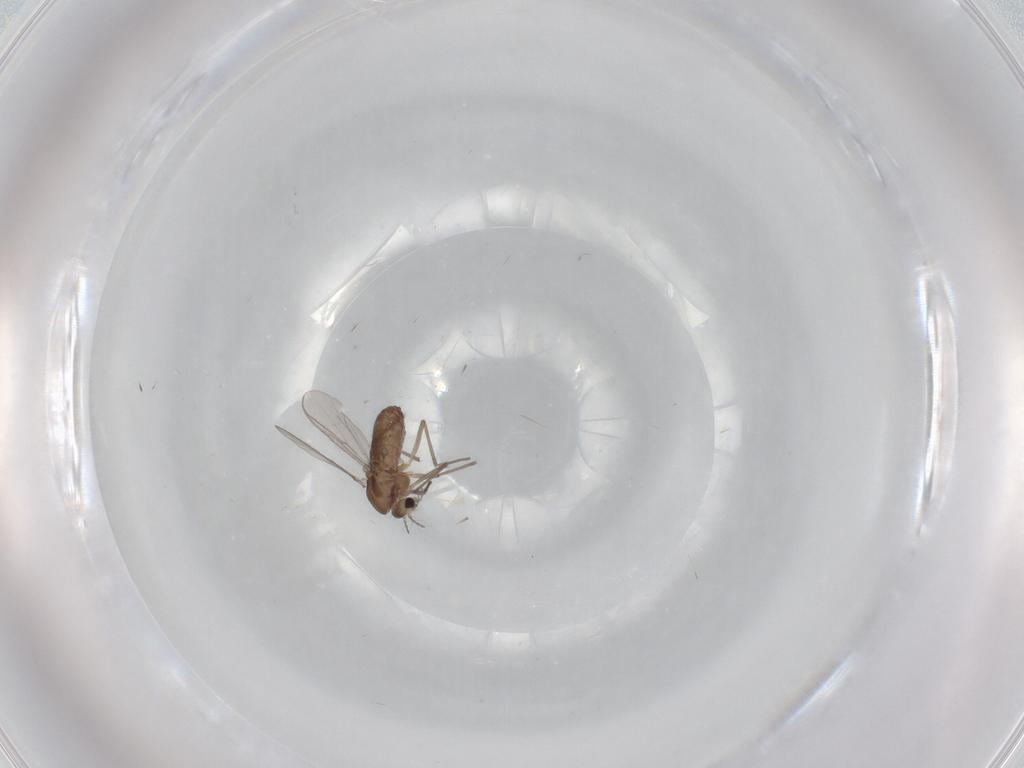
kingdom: Animalia
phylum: Arthropoda
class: Insecta
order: Diptera
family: Chironomidae
